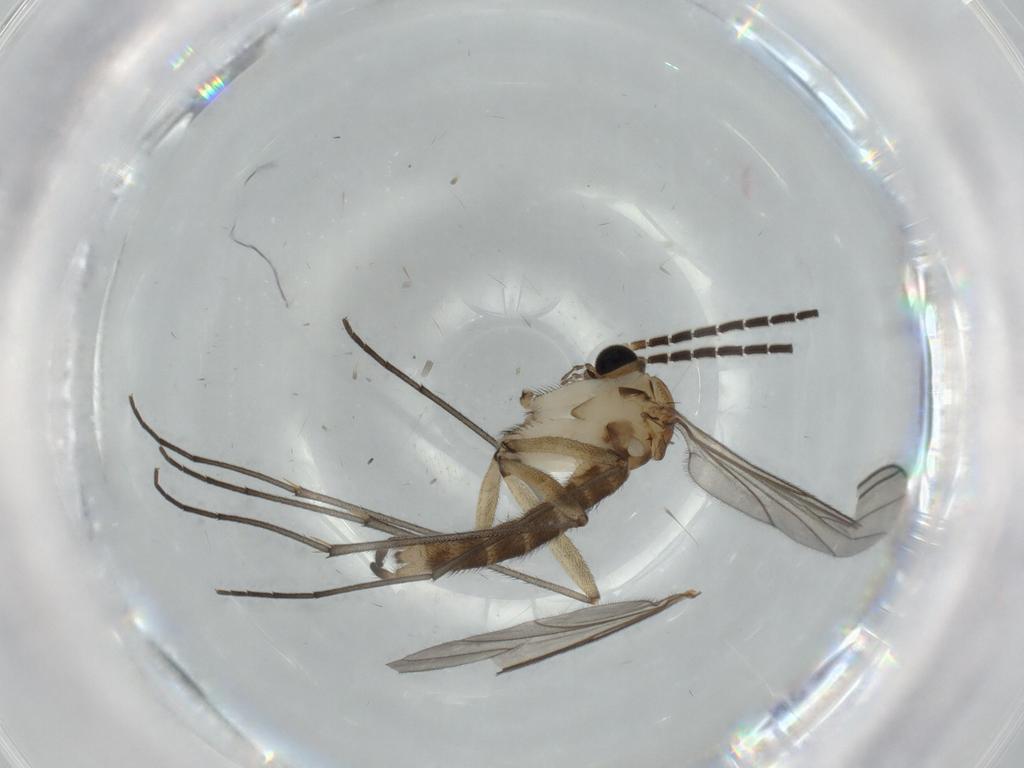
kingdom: Animalia
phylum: Arthropoda
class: Insecta
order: Diptera
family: Sciaridae
